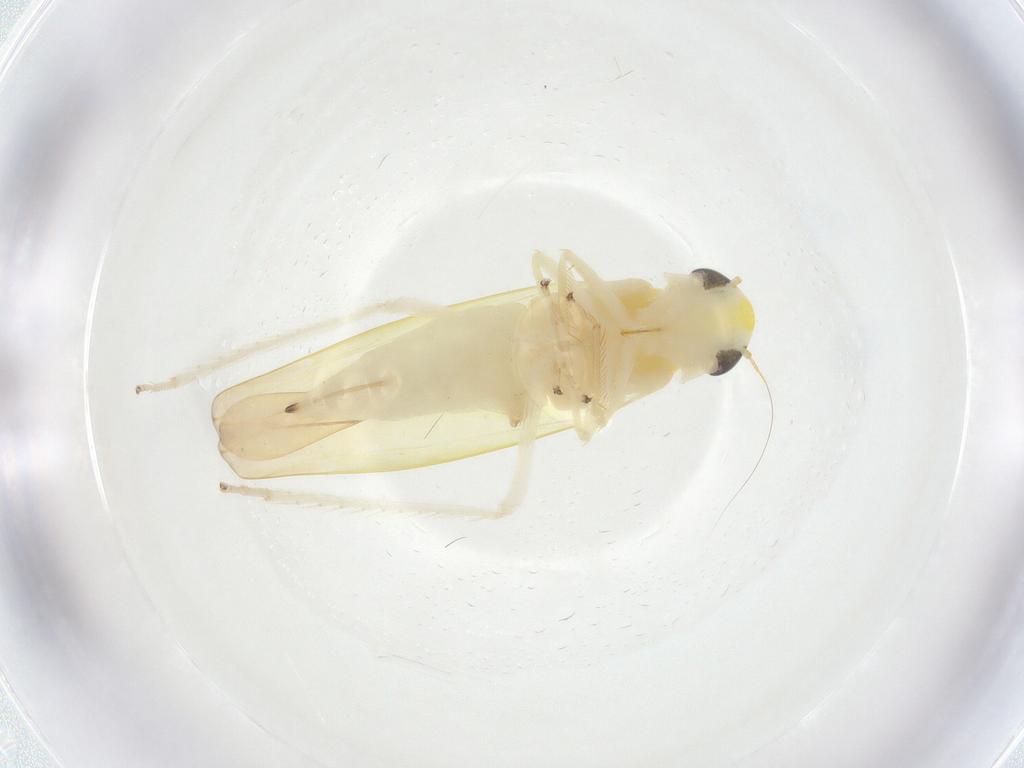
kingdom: Animalia
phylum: Arthropoda
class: Insecta
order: Hemiptera
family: Cicadellidae
